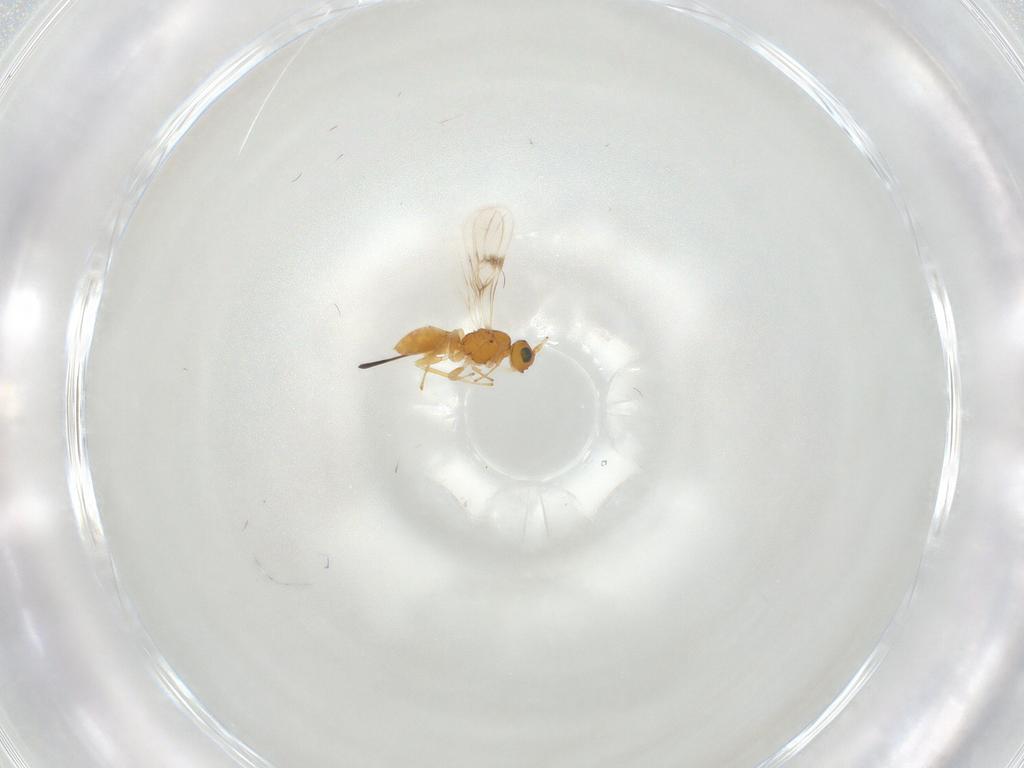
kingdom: Animalia
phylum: Arthropoda
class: Insecta
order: Hymenoptera
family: Braconidae
